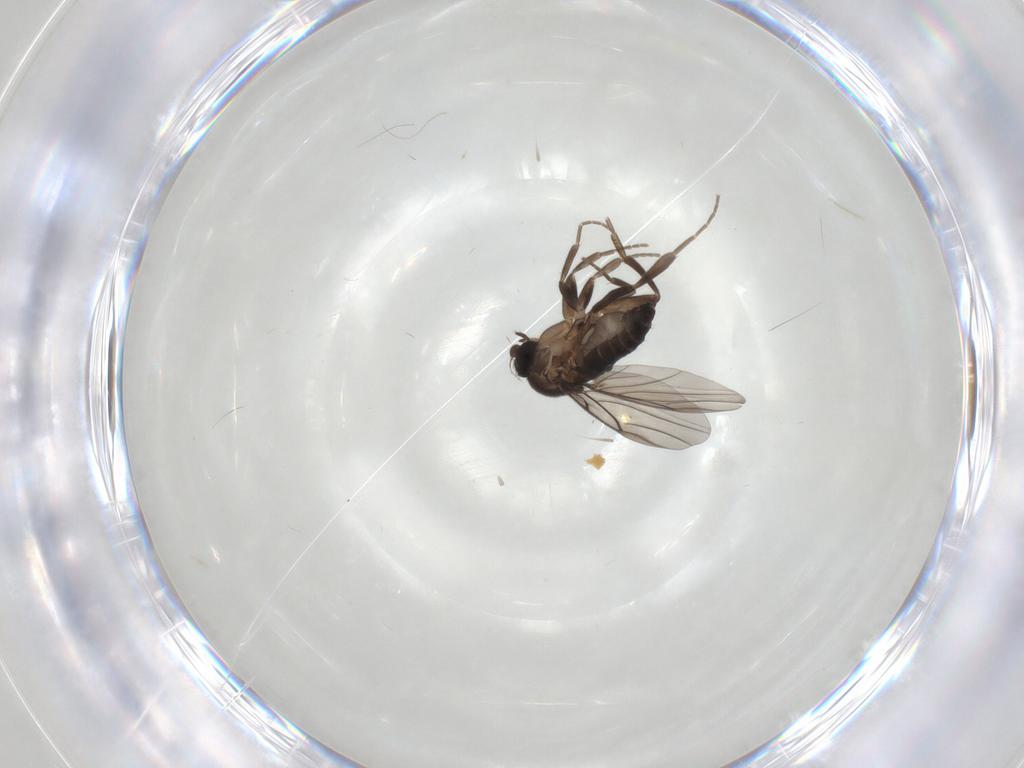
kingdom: Animalia
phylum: Arthropoda
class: Insecta
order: Diptera
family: Phoridae
